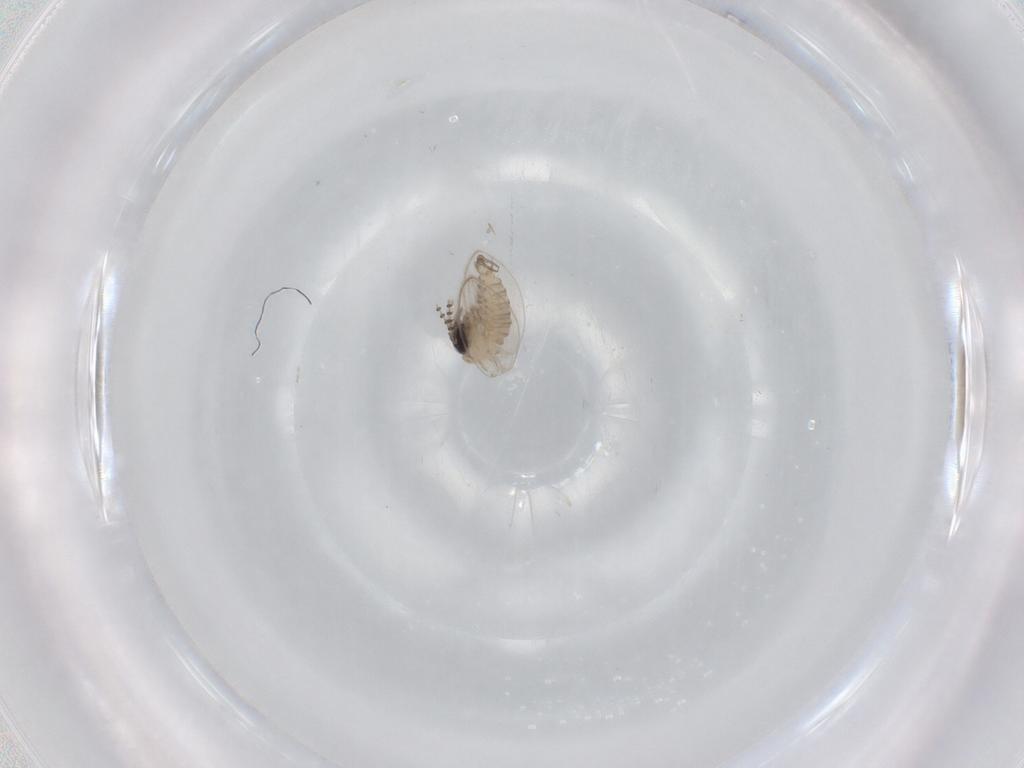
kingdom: Animalia
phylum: Arthropoda
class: Insecta
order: Diptera
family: Psychodidae
